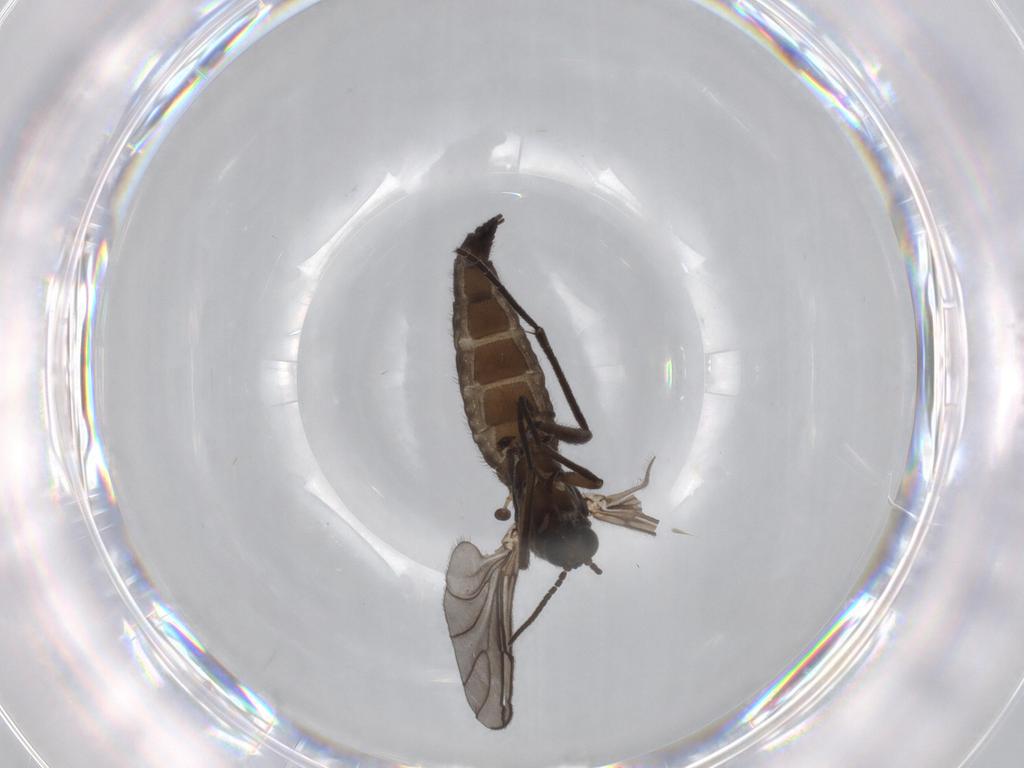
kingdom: Animalia
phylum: Arthropoda
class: Insecta
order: Diptera
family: Sciaridae
